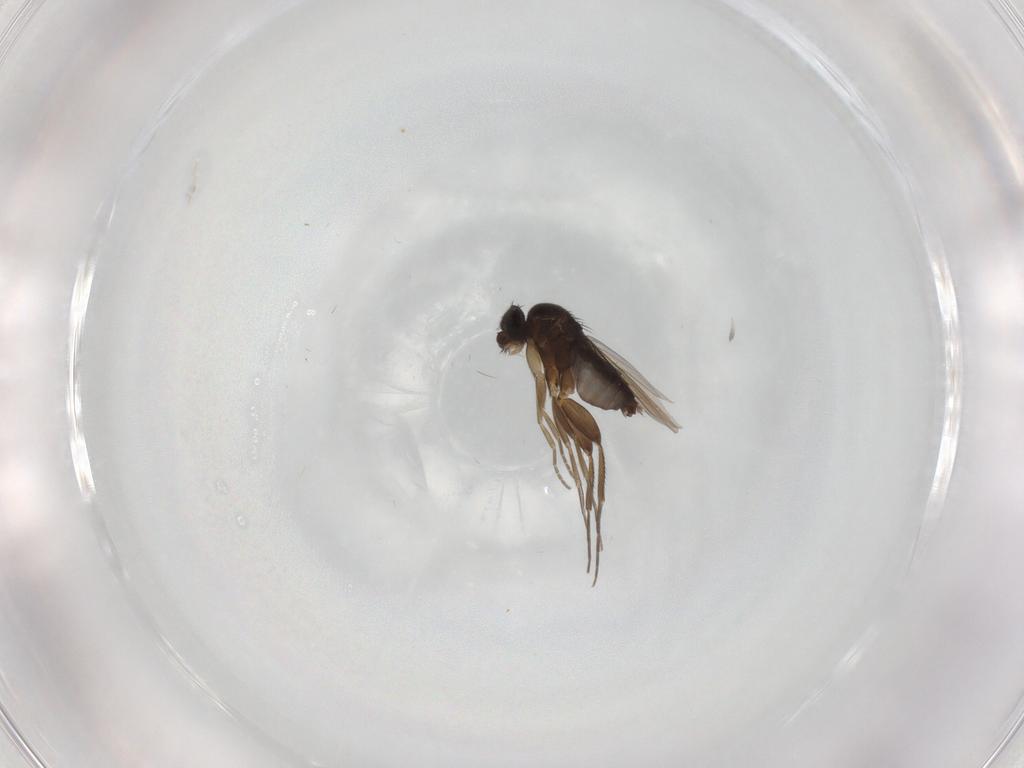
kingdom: Animalia
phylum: Arthropoda
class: Insecta
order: Diptera
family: Phoridae
